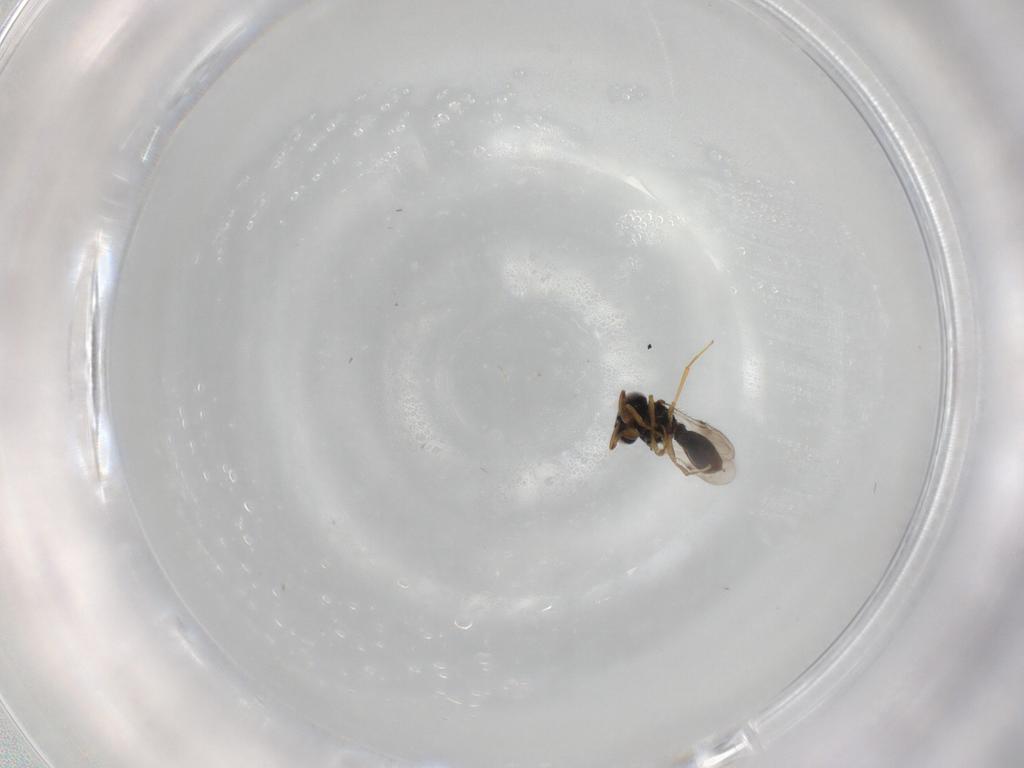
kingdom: Animalia
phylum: Arthropoda
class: Insecta
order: Hymenoptera
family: Scelionidae
